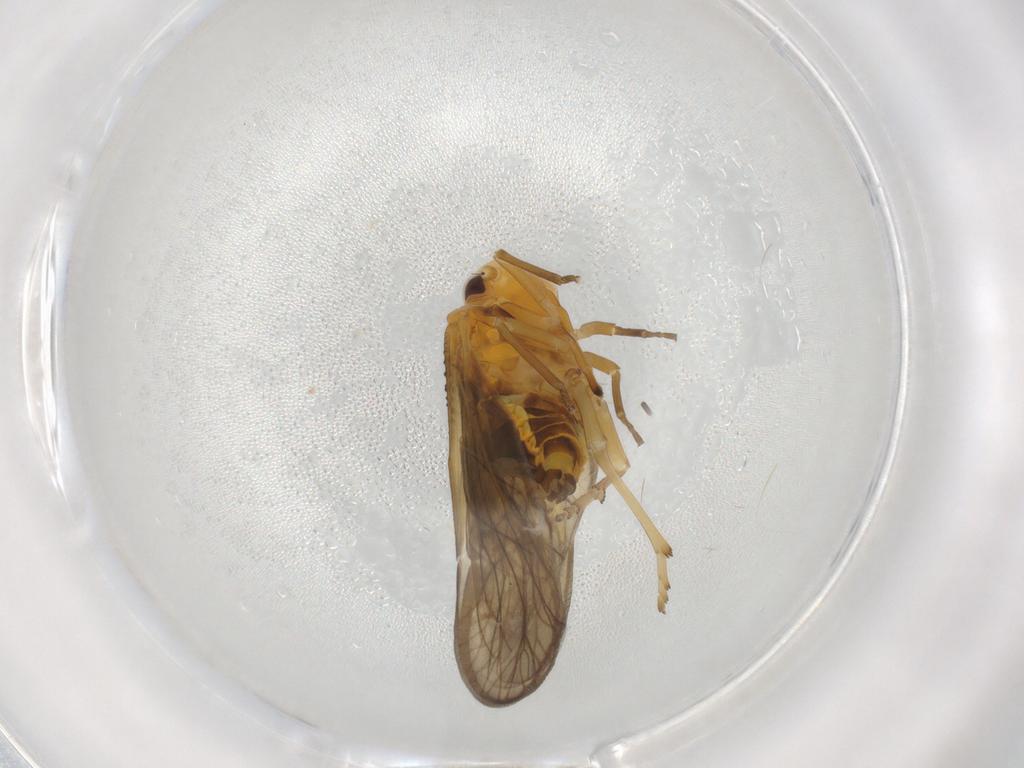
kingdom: Animalia
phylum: Arthropoda
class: Insecta
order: Hemiptera
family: Meenoplidae
